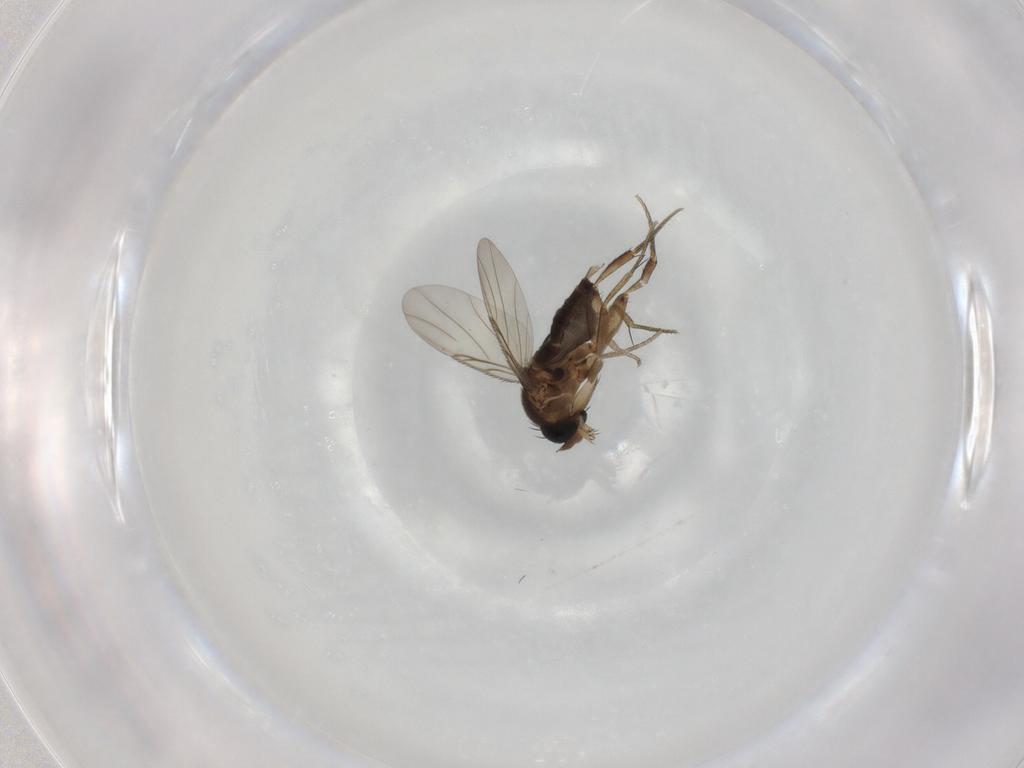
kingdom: Animalia
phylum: Arthropoda
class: Insecta
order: Diptera
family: Phoridae
